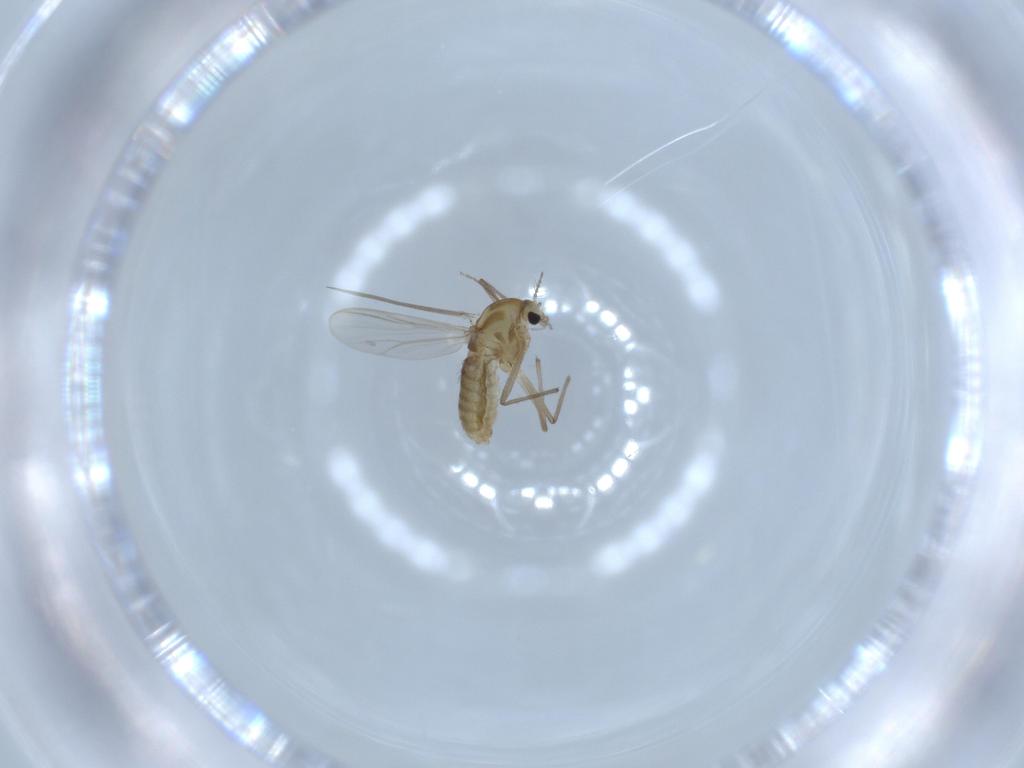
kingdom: Animalia
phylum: Arthropoda
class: Insecta
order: Diptera
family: Chironomidae
